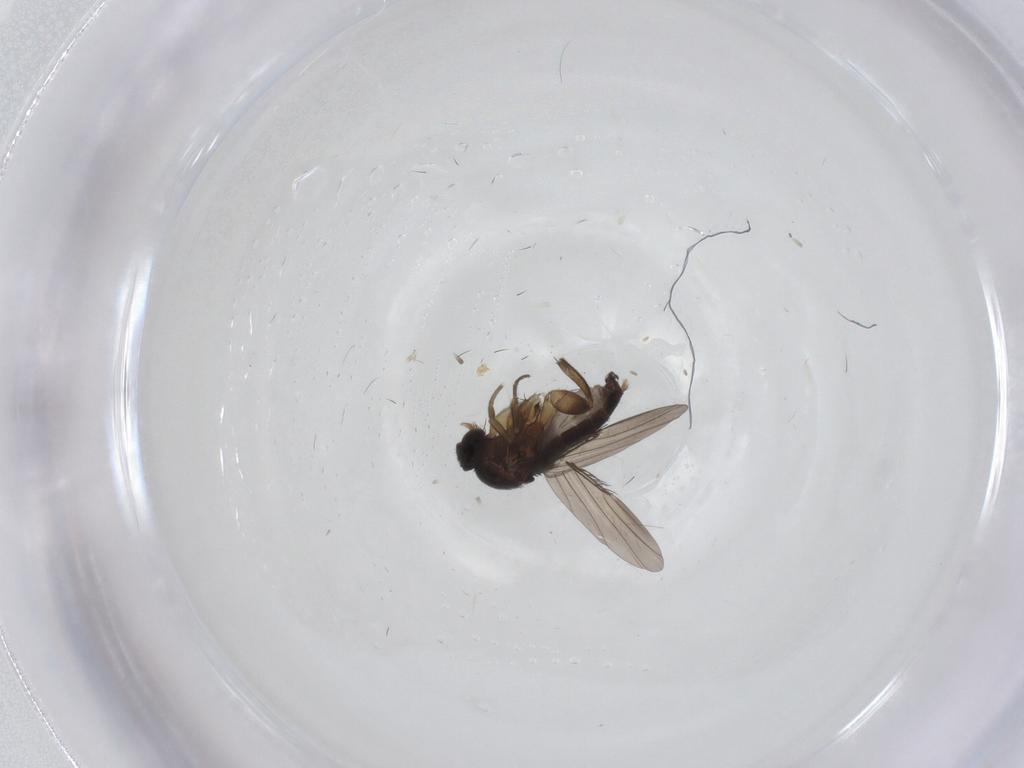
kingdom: Animalia
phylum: Arthropoda
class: Insecta
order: Diptera
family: Phoridae
